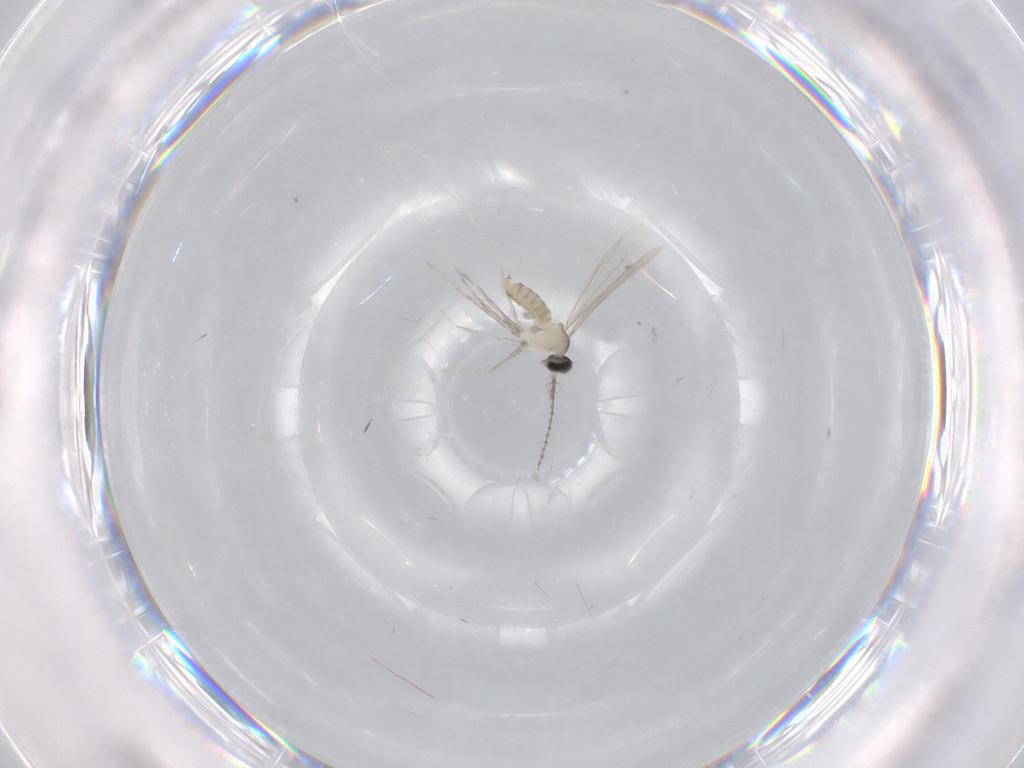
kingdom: Animalia
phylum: Arthropoda
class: Insecta
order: Diptera
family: Cecidomyiidae
